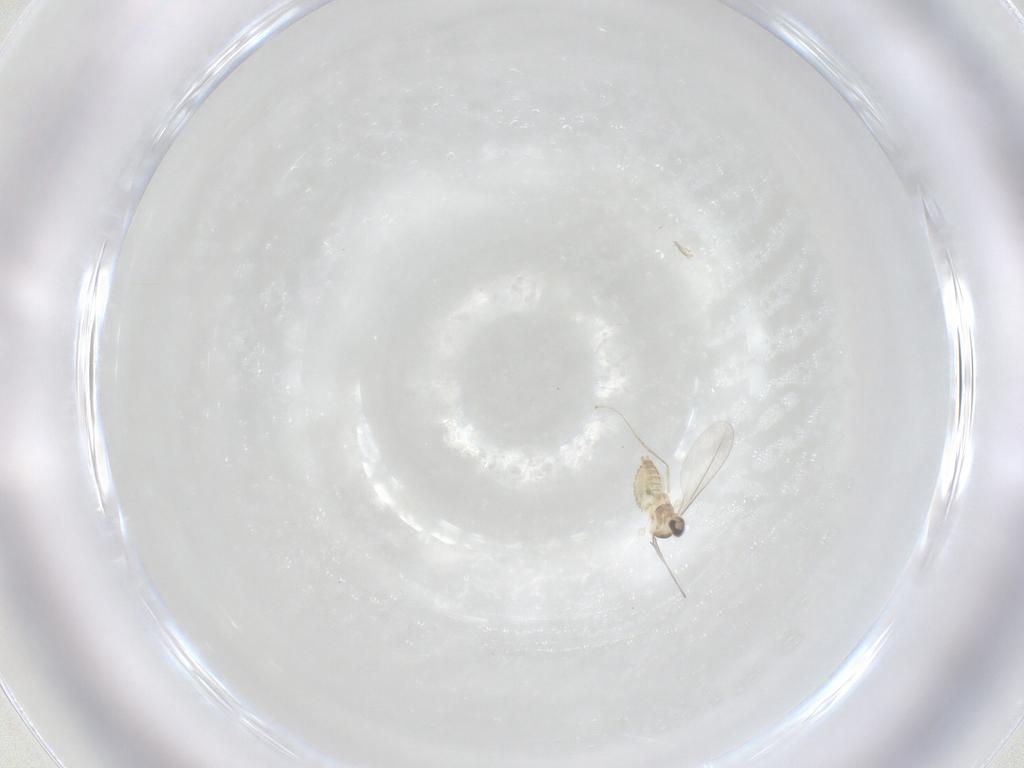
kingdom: Animalia
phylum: Arthropoda
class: Insecta
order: Diptera
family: Cecidomyiidae
